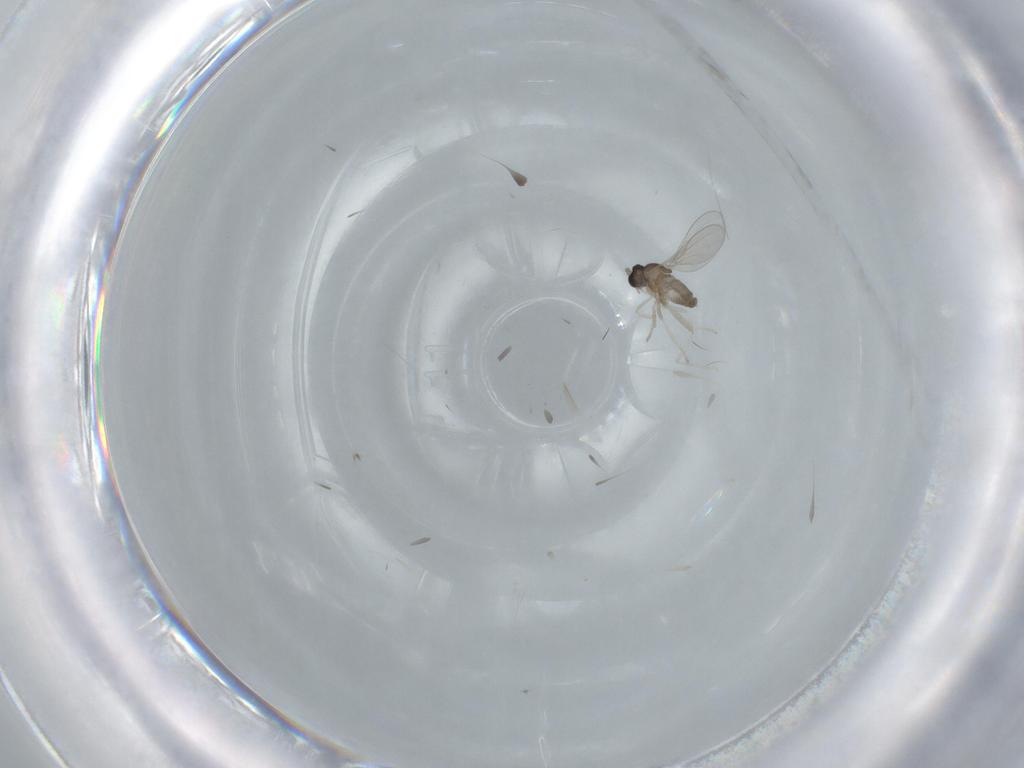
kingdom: Animalia
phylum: Arthropoda
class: Insecta
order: Diptera
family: Cecidomyiidae
